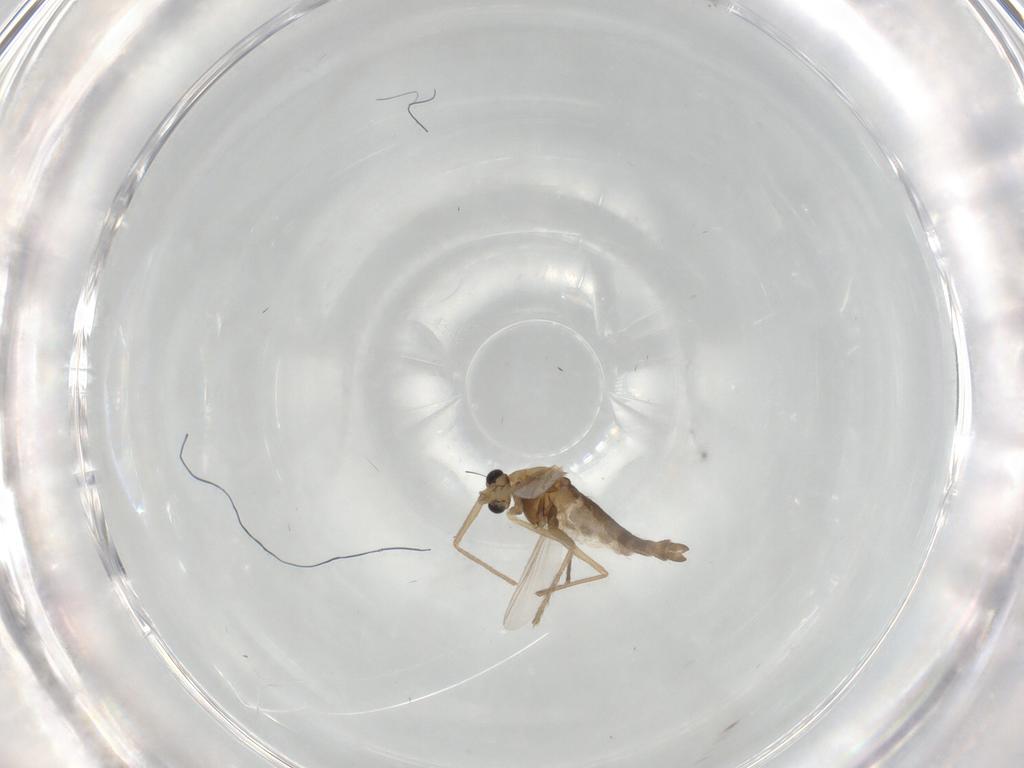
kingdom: Animalia
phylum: Arthropoda
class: Insecta
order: Diptera
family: Chironomidae
